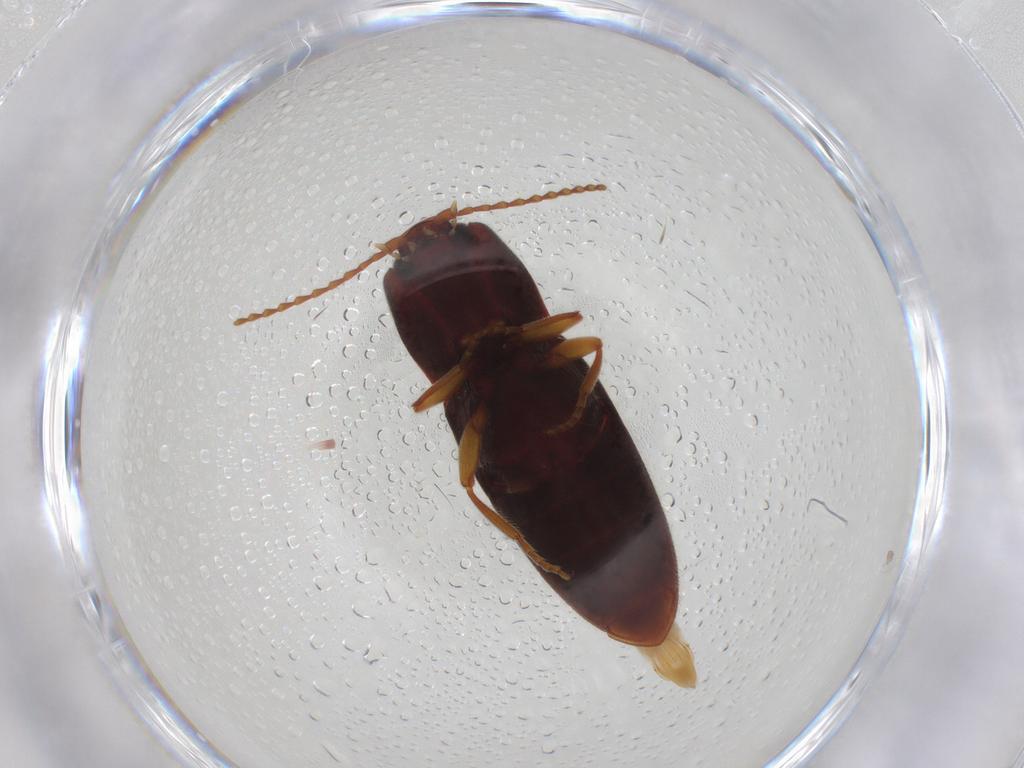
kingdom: Animalia
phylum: Arthropoda
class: Insecta
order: Coleoptera
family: Elateridae
